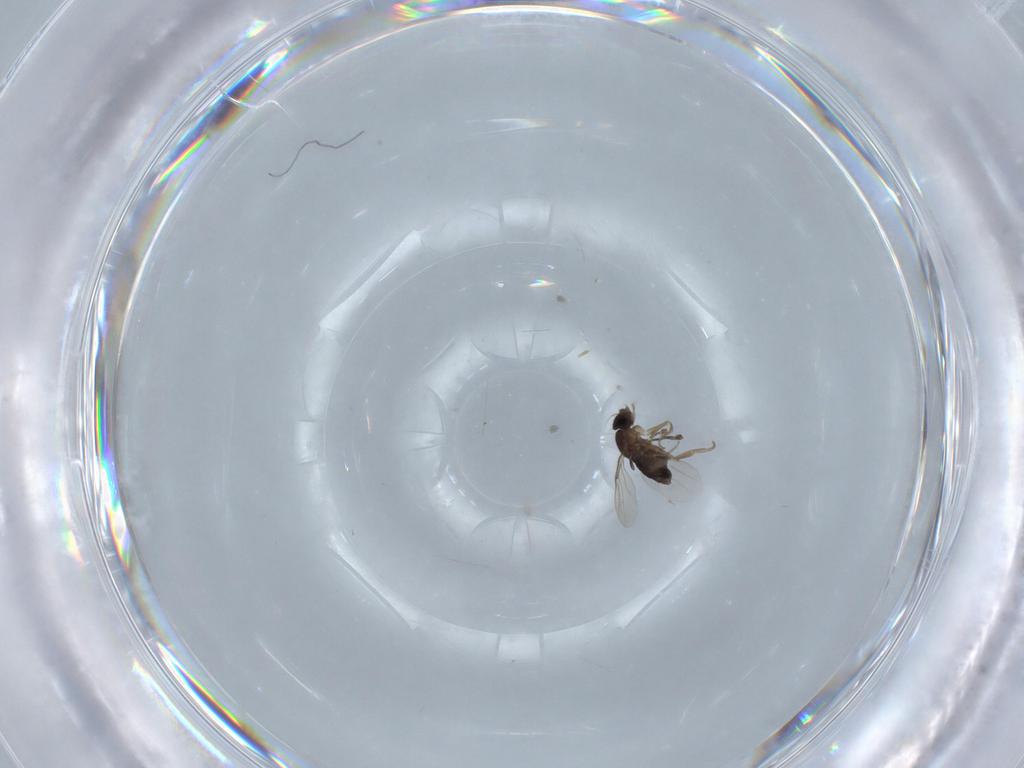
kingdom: Animalia
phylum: Arthropoda
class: Insecta
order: Diptera
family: Phoridae
